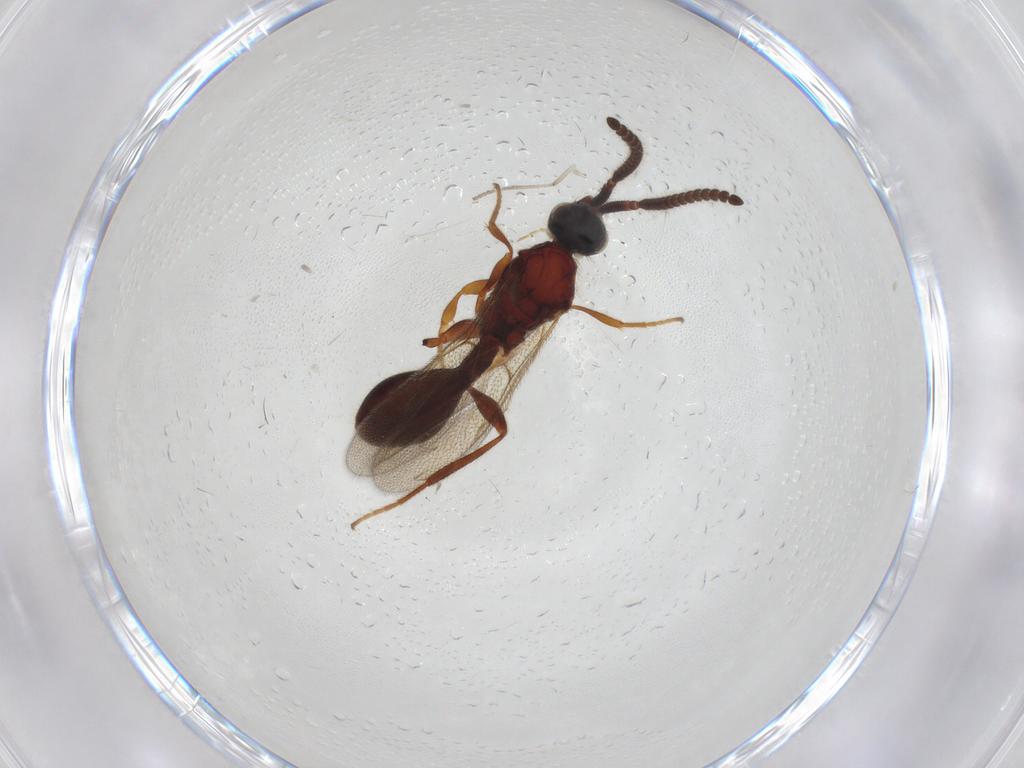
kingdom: Animalia
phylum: Arthropoda
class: Insecta
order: Hymenoptera
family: Diapriidae
